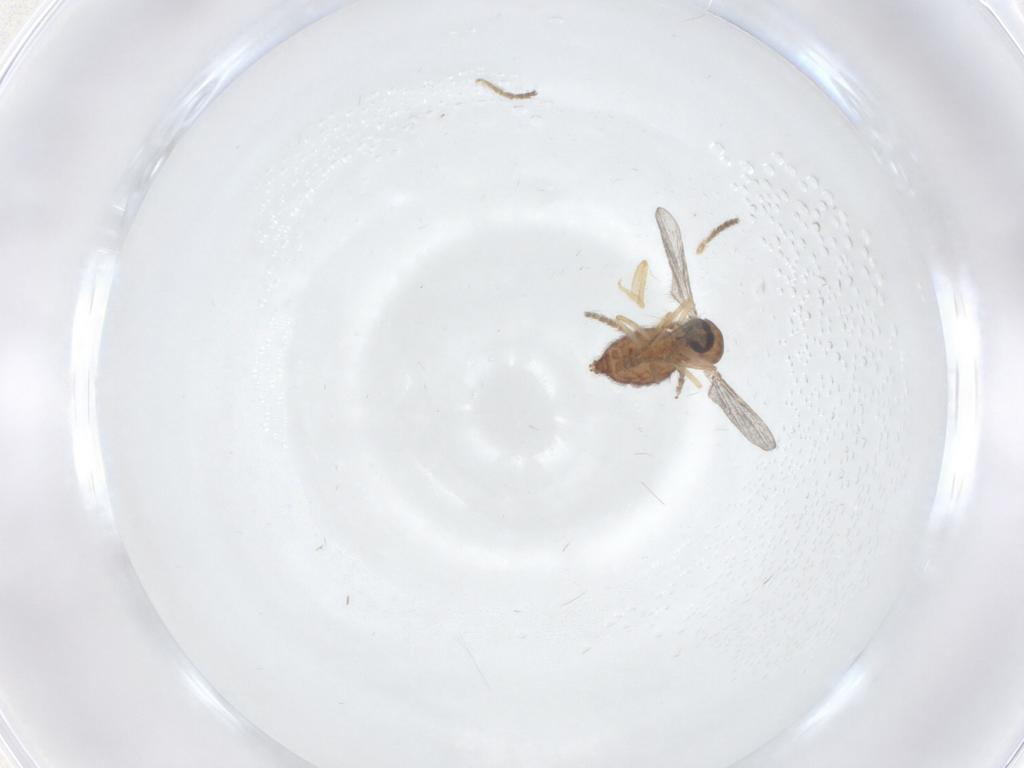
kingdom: Animalia
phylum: Arthropoda
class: Insecta
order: Diptera
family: Ceratopogonidae
